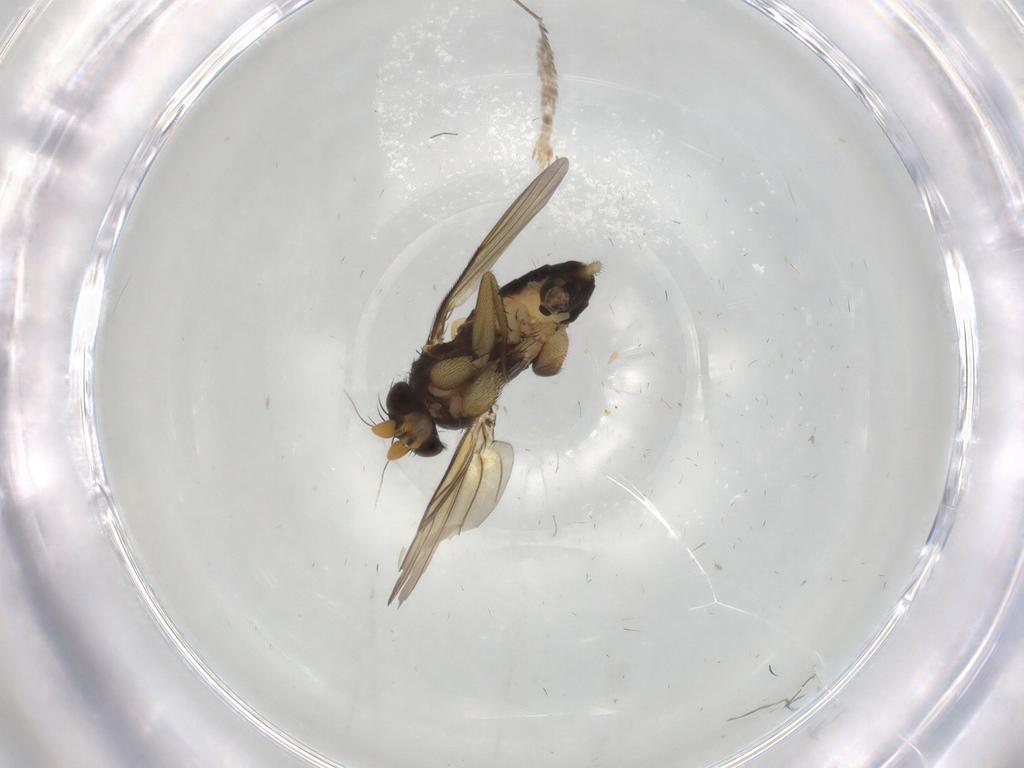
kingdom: Animalia
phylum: Arthropoda
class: Insecta
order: Diptera
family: Phoridae
